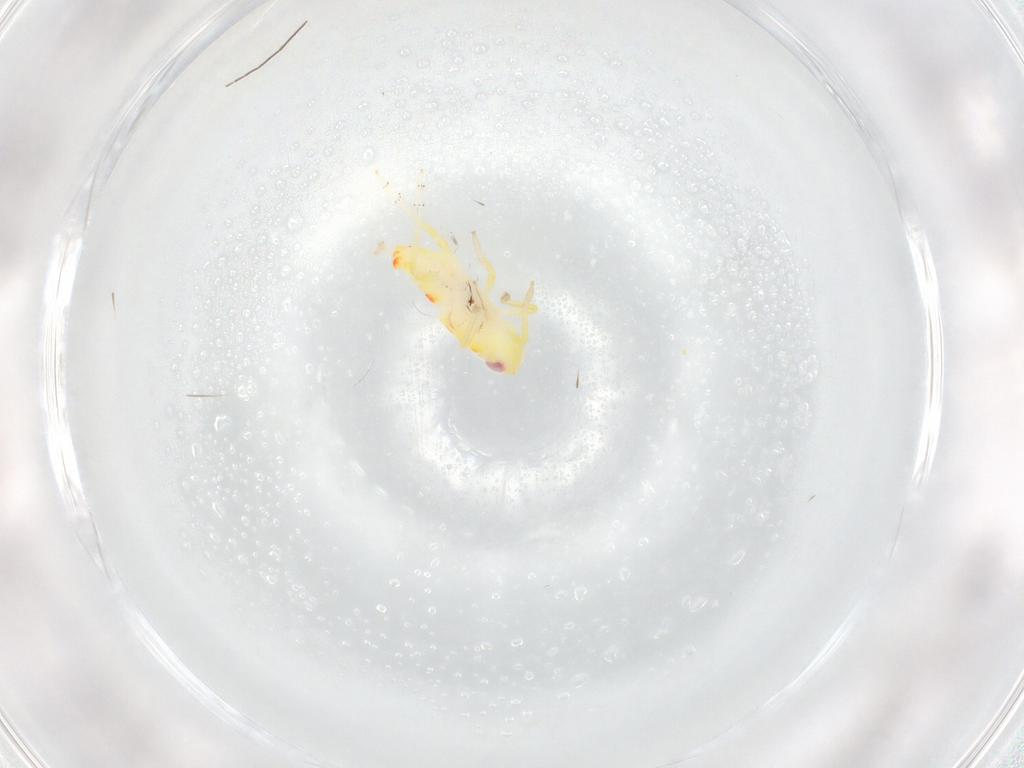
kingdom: Animalia
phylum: Arthropoda
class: Insecta
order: Hemiptera
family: Tropiduchidae
